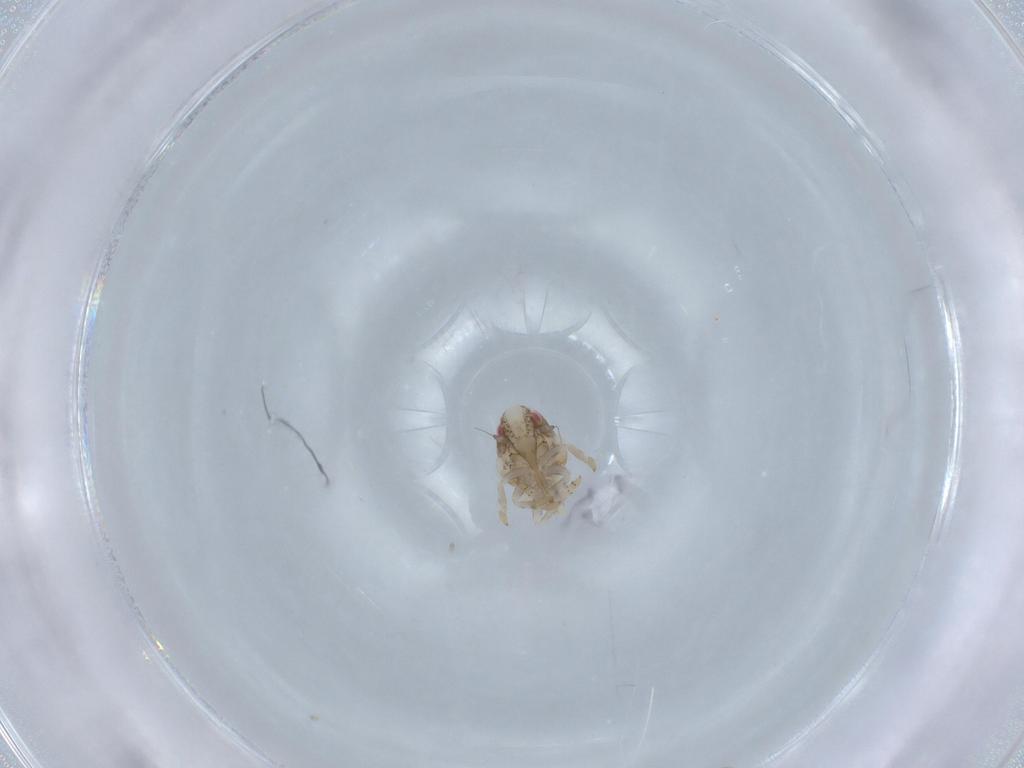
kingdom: Animalia
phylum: Arthropoda
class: Insecta
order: Hemiptera
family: Acanaloniidae
